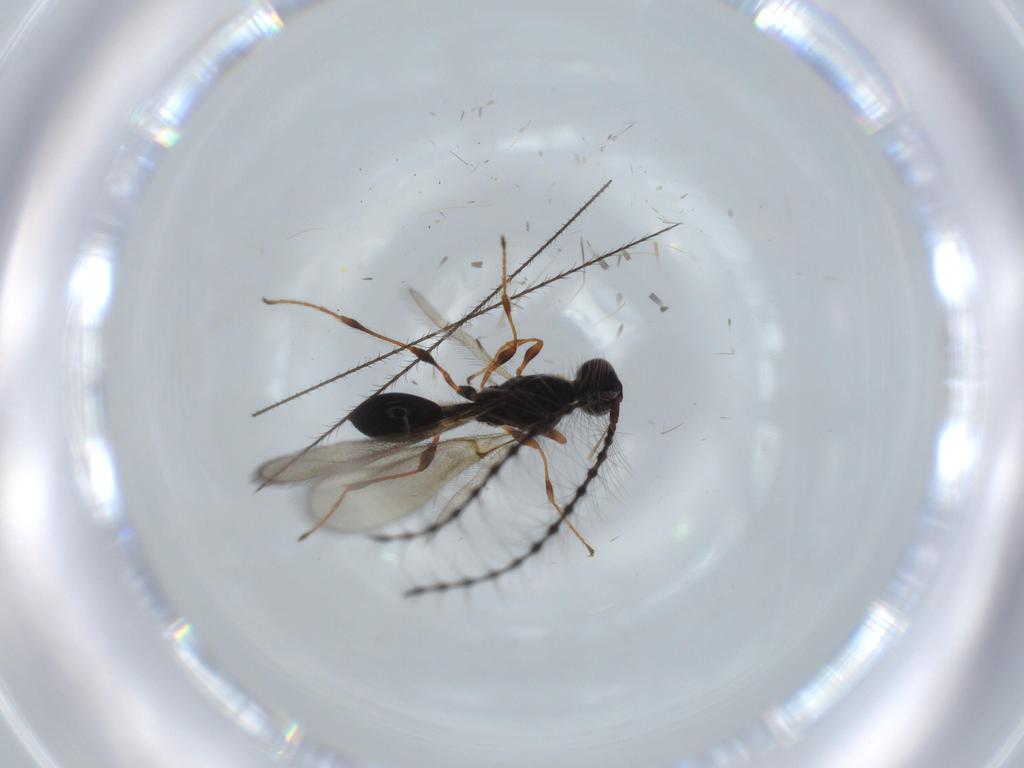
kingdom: Animalia
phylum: Arthropoda
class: Insecta
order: Hymenoptera
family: Diapriidae
